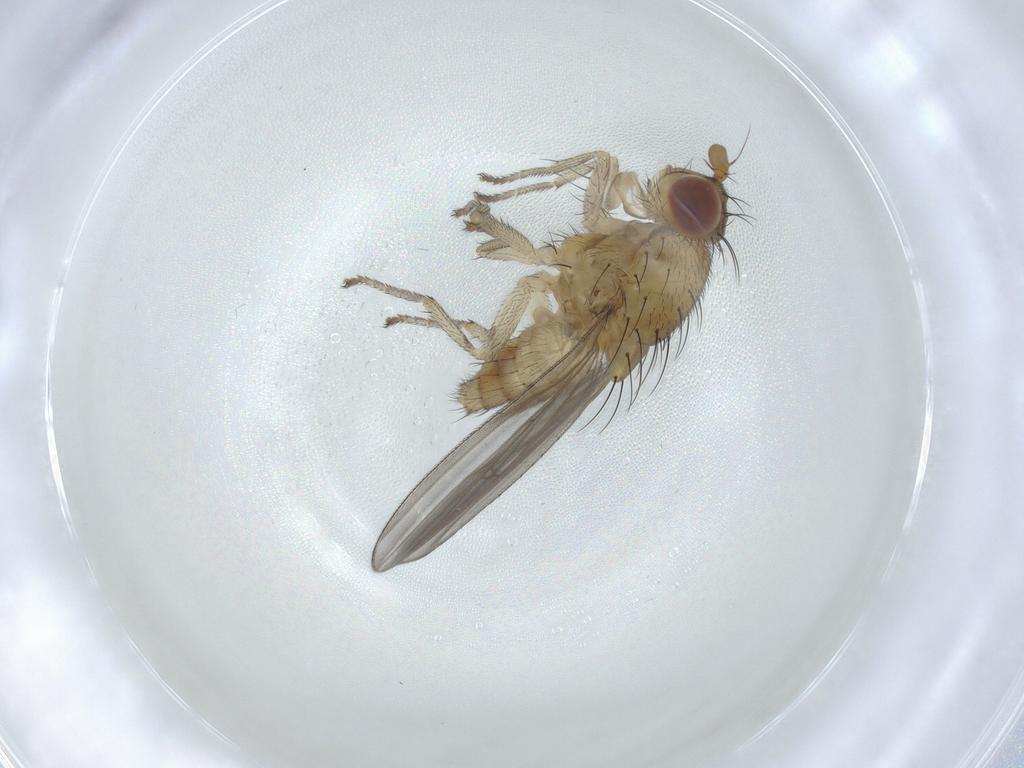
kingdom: Animalia
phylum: Arthropoda
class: Insecta
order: Diptera
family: Lauxaniidae
